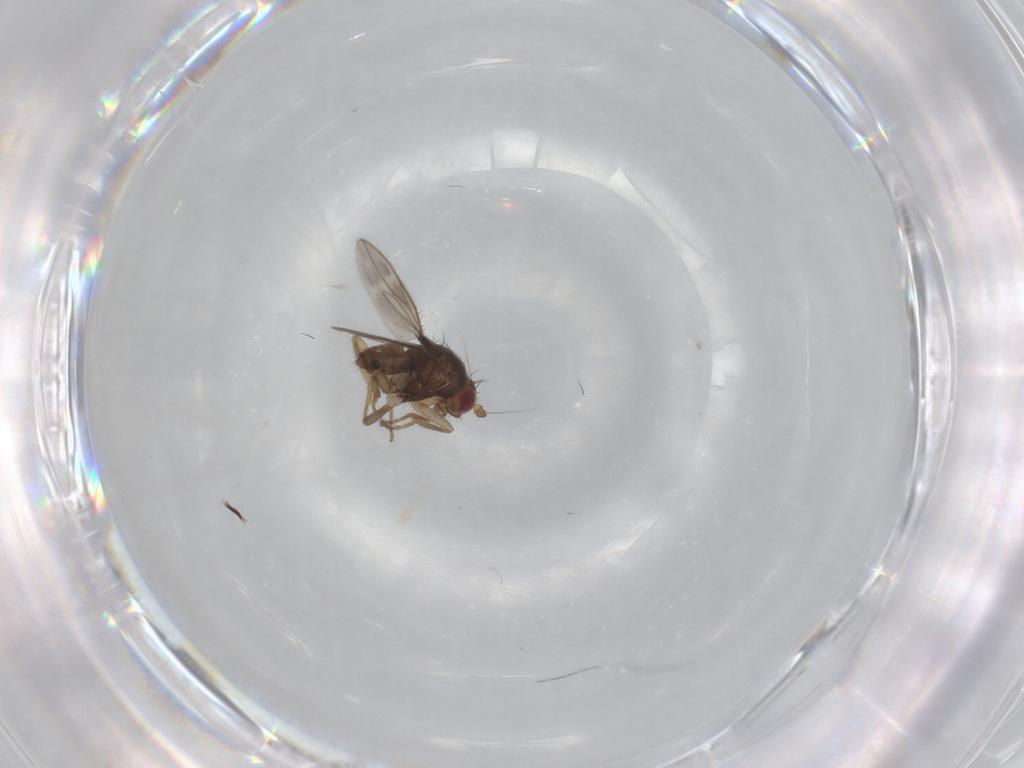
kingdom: Animalia
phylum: Arthropoda
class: Insecta
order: Diptera
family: Sphaeroceridae
